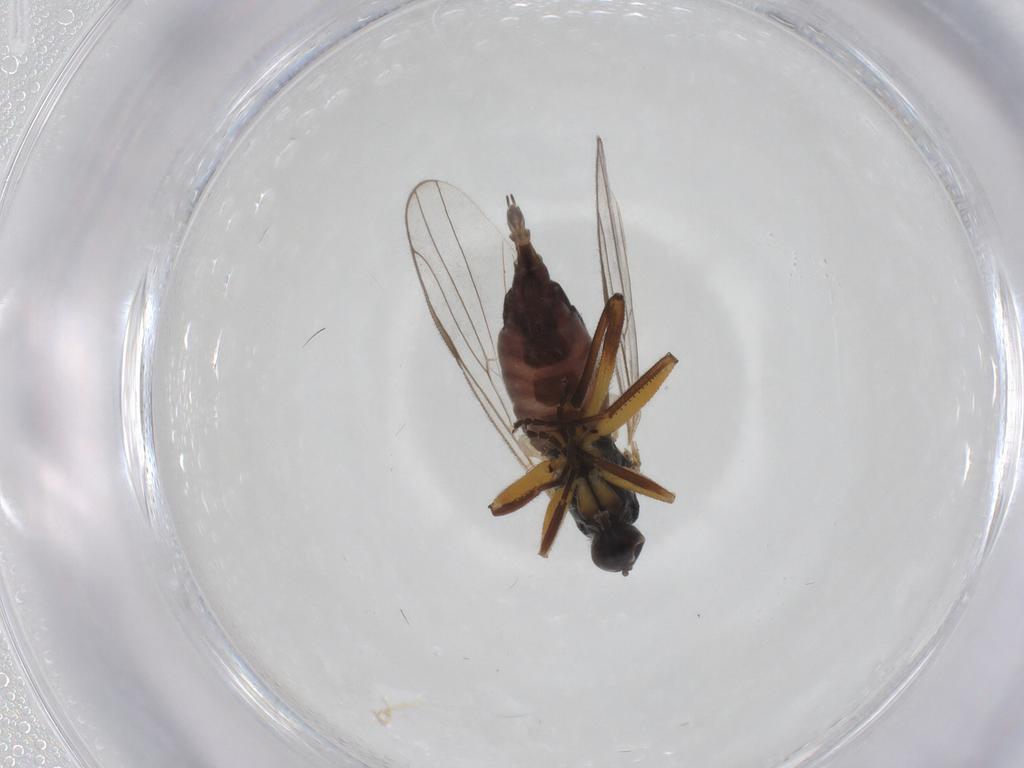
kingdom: Animalia
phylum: Arthropoda
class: Insecta
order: Diptera
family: Hybotidae
